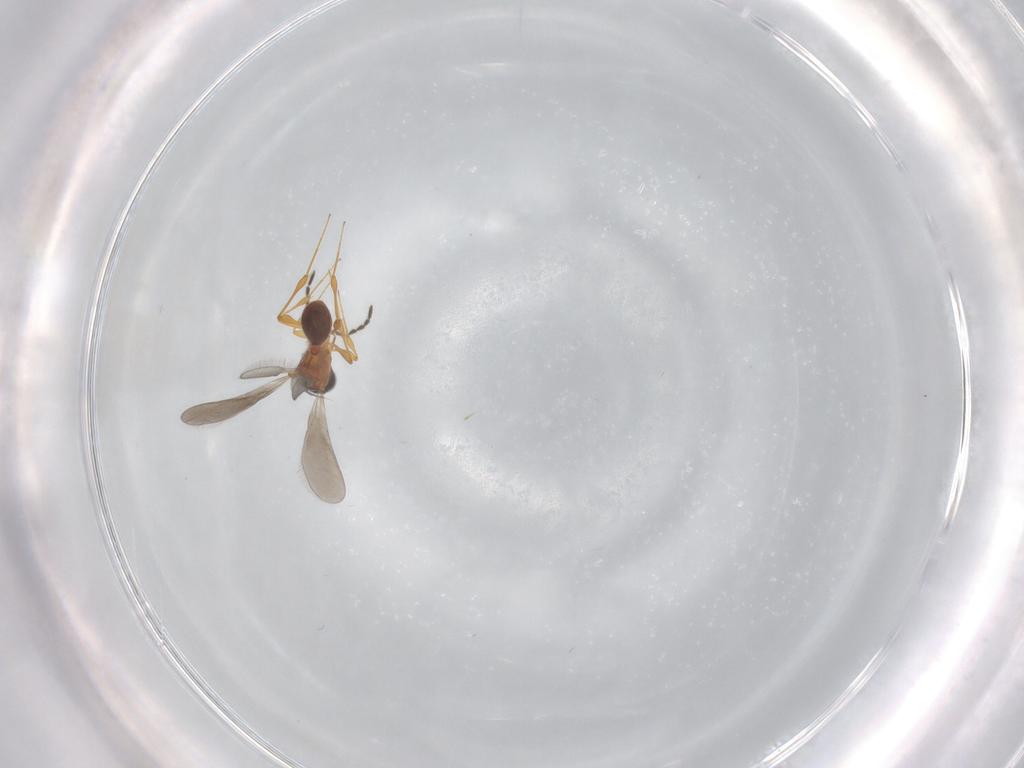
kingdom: Animalia
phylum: Arthropoda
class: Insecta
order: Hymenoptera
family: Platygastridae
